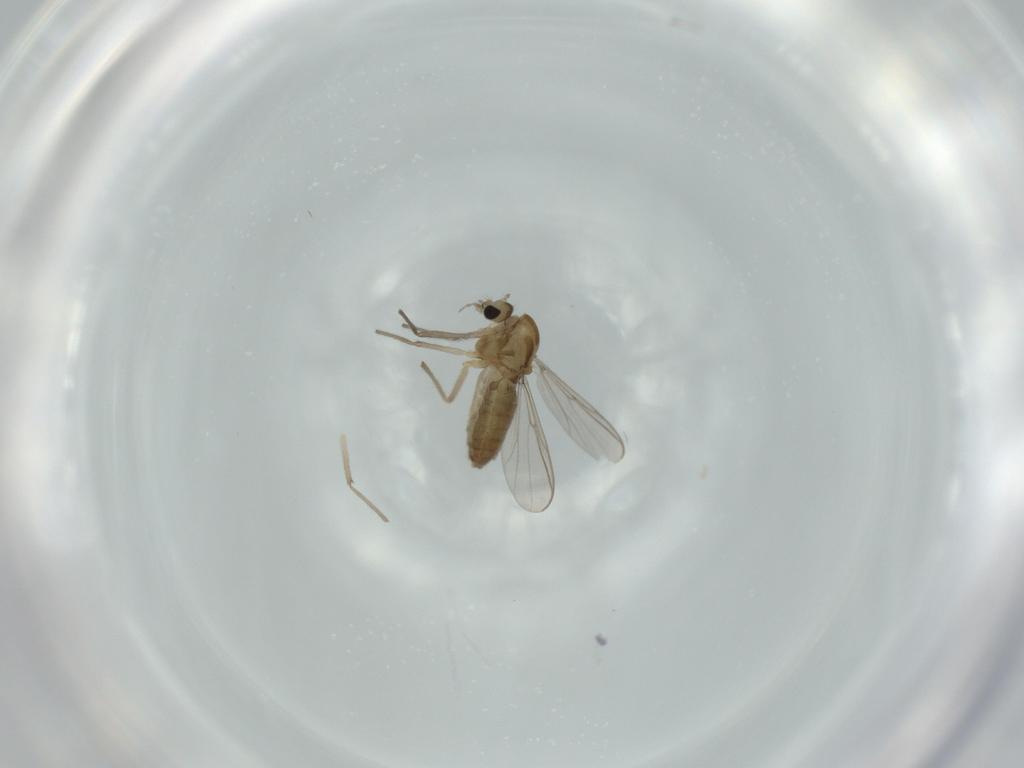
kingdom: Animalia
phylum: Arthropoda
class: Insecta
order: Diptera
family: Chironomidae
